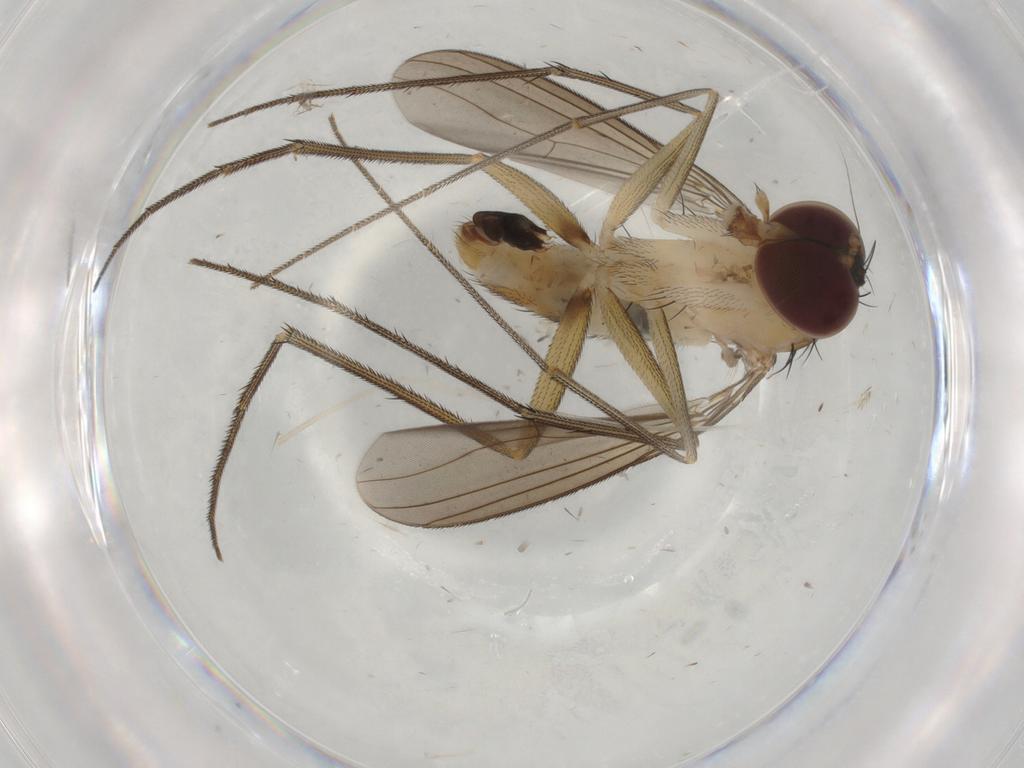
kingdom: Animalia
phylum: Arthropoda
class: Insecta
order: Diptera
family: Dolichopodidae
